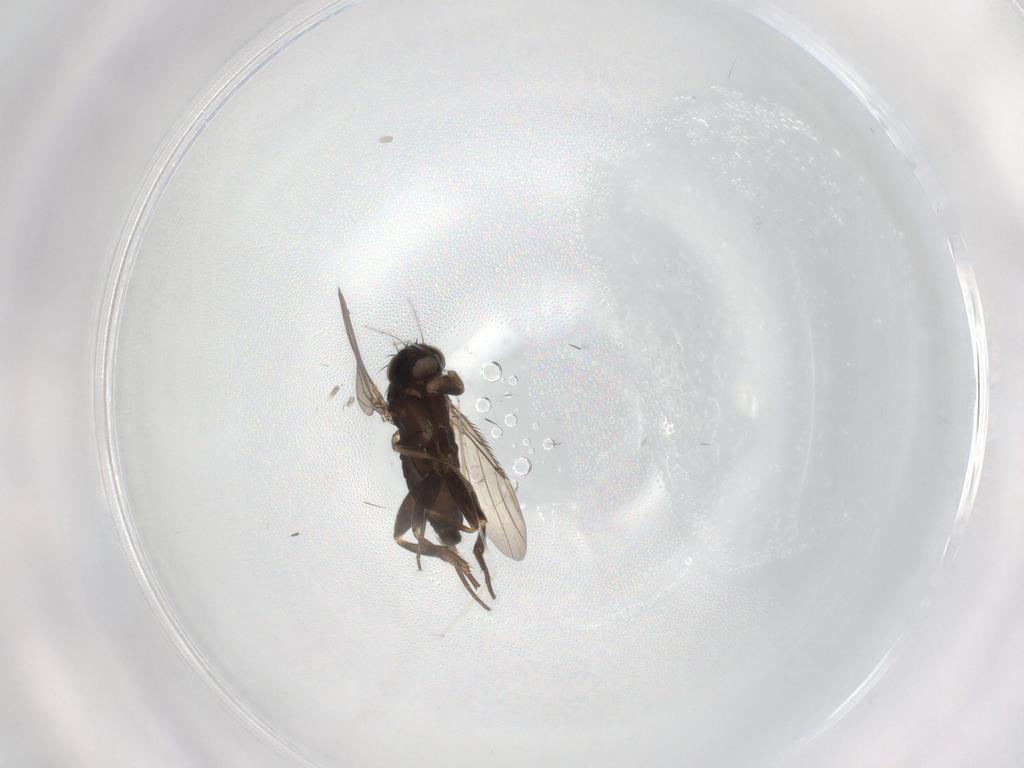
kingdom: Animalia
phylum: Arthropoda
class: Insecta
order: Diptera
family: Phoridae
